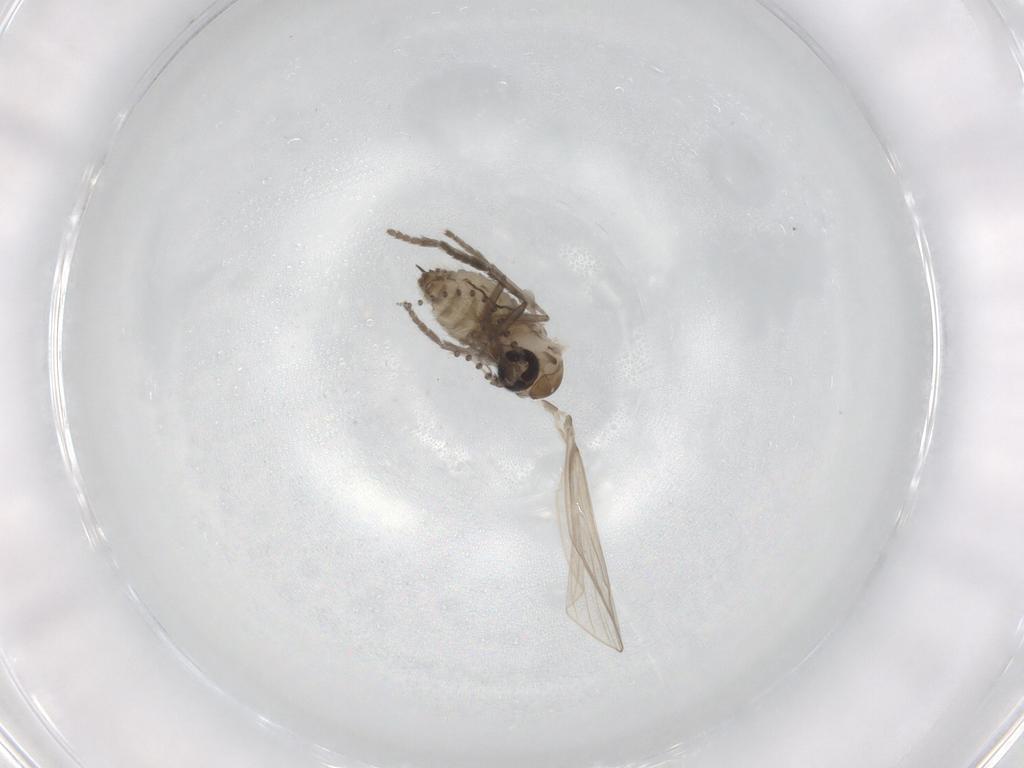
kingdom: Animalia
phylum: Arthropoda
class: Insecta
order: Diptera
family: Psychodidae
